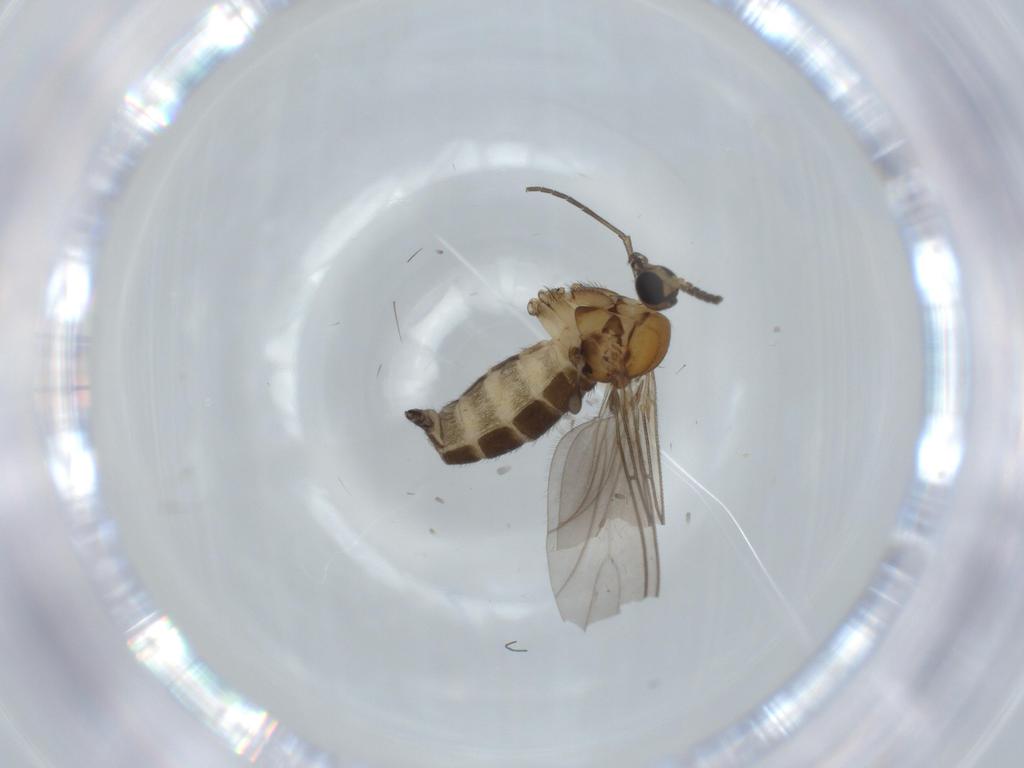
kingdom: Animalia
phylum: Arthropoda
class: Insecta
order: Diptera
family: Sciaridae
